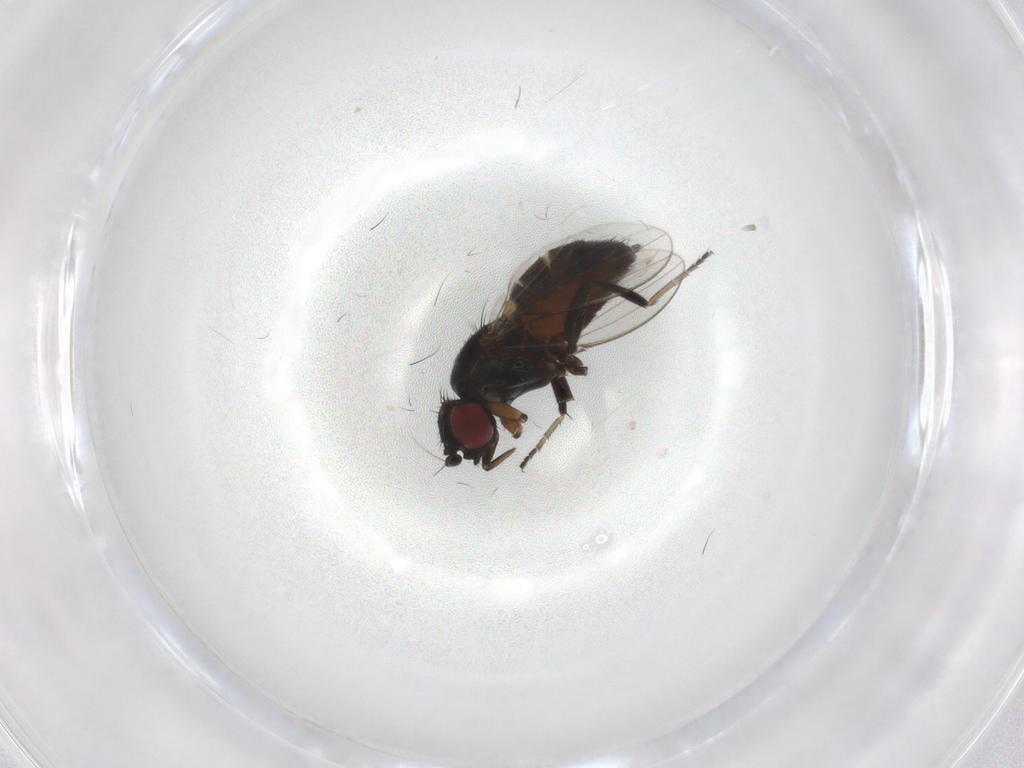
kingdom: Animalia
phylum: Arthropoda
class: Insecta
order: Diptera
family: Milichiidae
